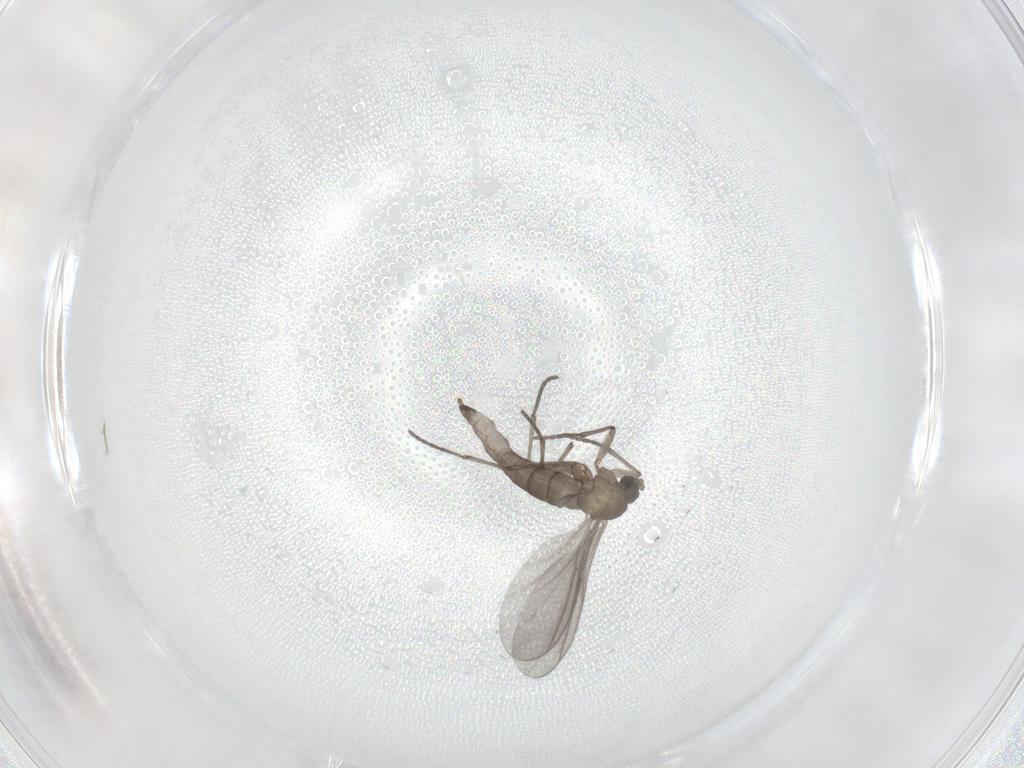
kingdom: Animalia
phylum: Arthropoda
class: Insecta
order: Diptera
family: Sciaridae
